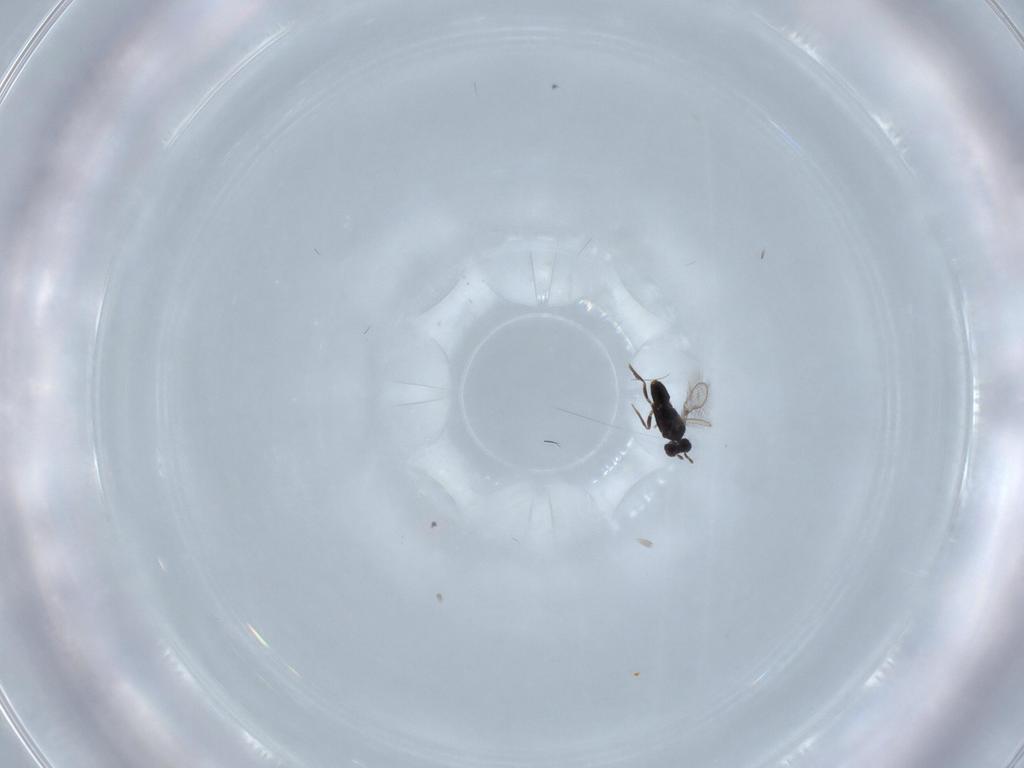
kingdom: Animalia
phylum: Arthropoda
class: Insecta
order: Hymenoptera
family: Mymaridae
